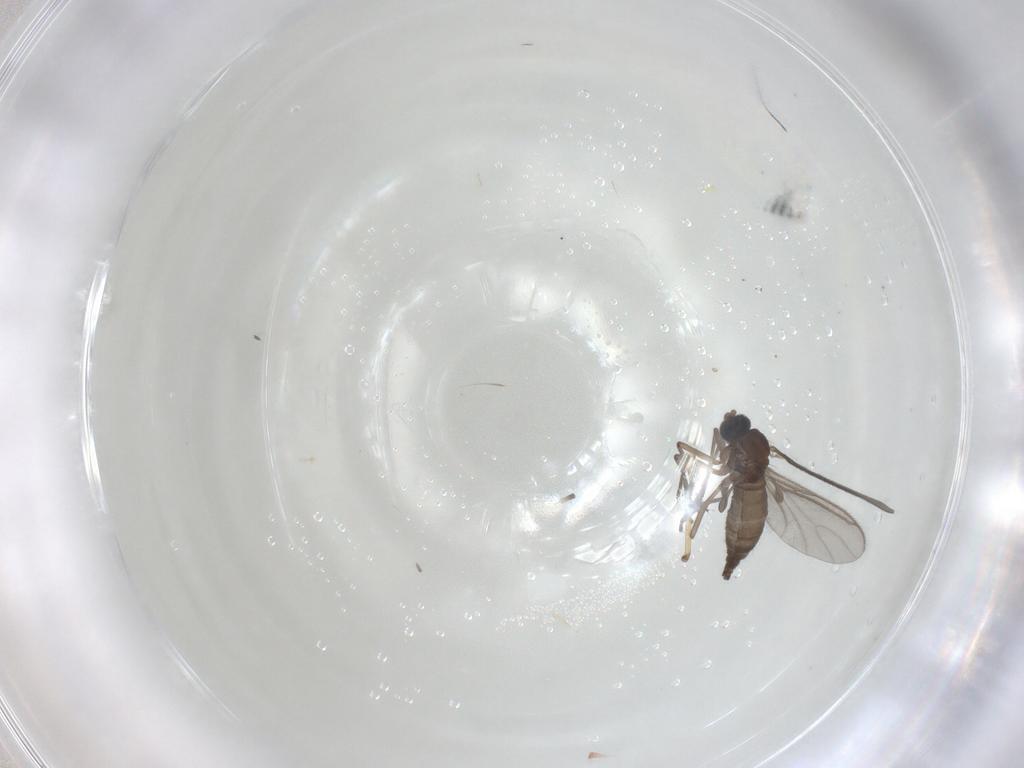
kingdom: Animalia
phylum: Arthropoda
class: Insecta
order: Diptera
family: Sciaridae
